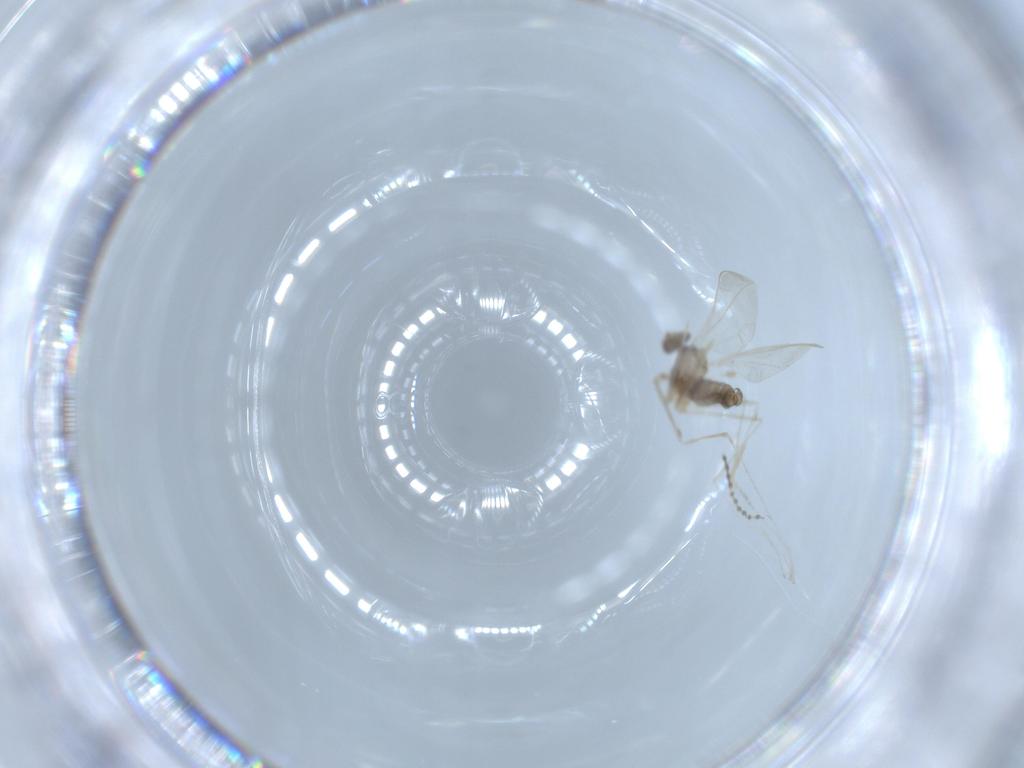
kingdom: Animalia
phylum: Arthropoda
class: Insecta
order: Diptera
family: Cecidomyiidae
